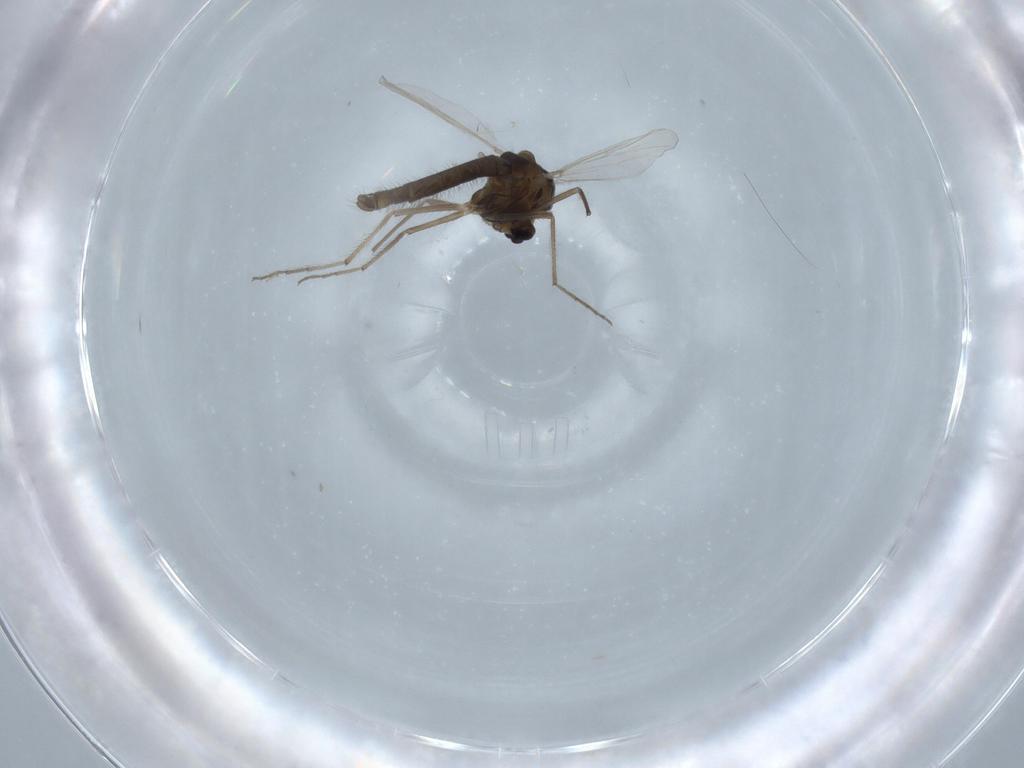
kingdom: Animalia
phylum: Arthropoda
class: Insecta
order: Diptera
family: Chironomidae
